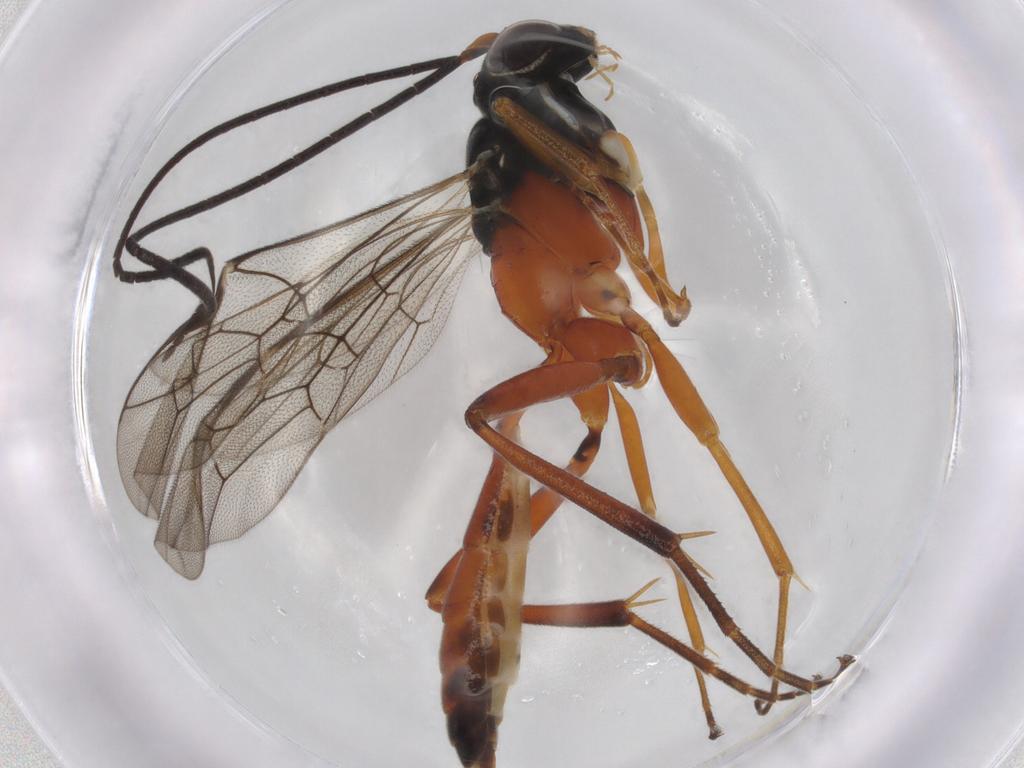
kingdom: Animalia
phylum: Arthropoda
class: Insecta
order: Hymenoptera
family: Ichneumonidae
